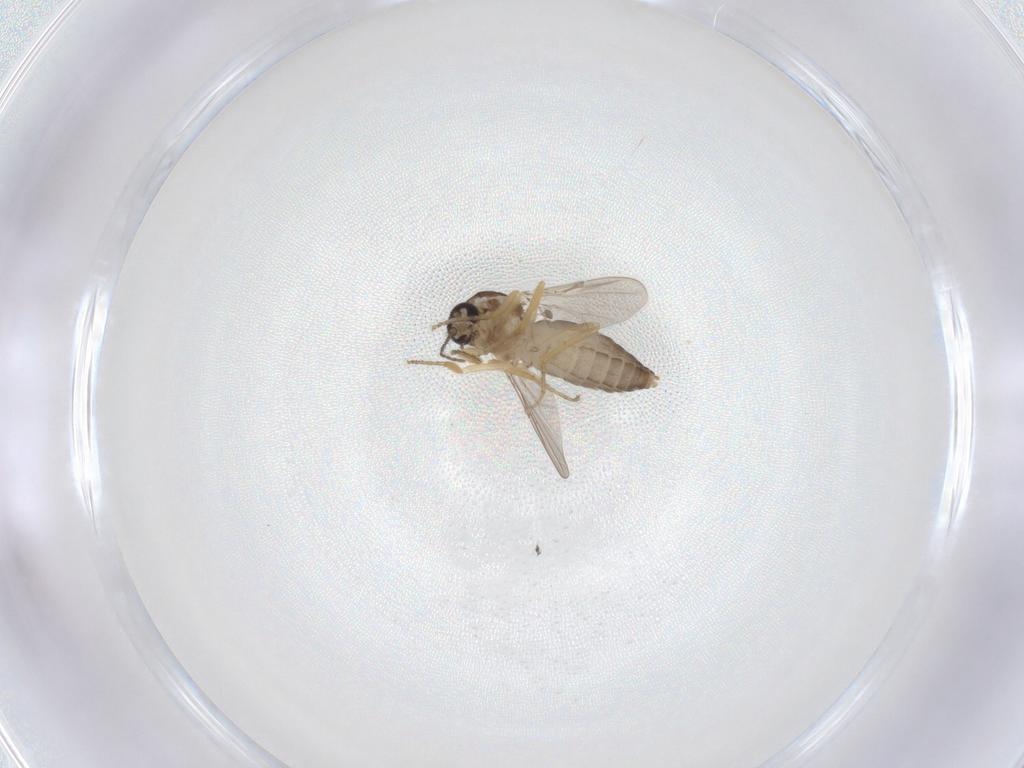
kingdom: Animalia
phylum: Arthropoda
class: Insecta
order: Diptera
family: Ceratopogonidae
